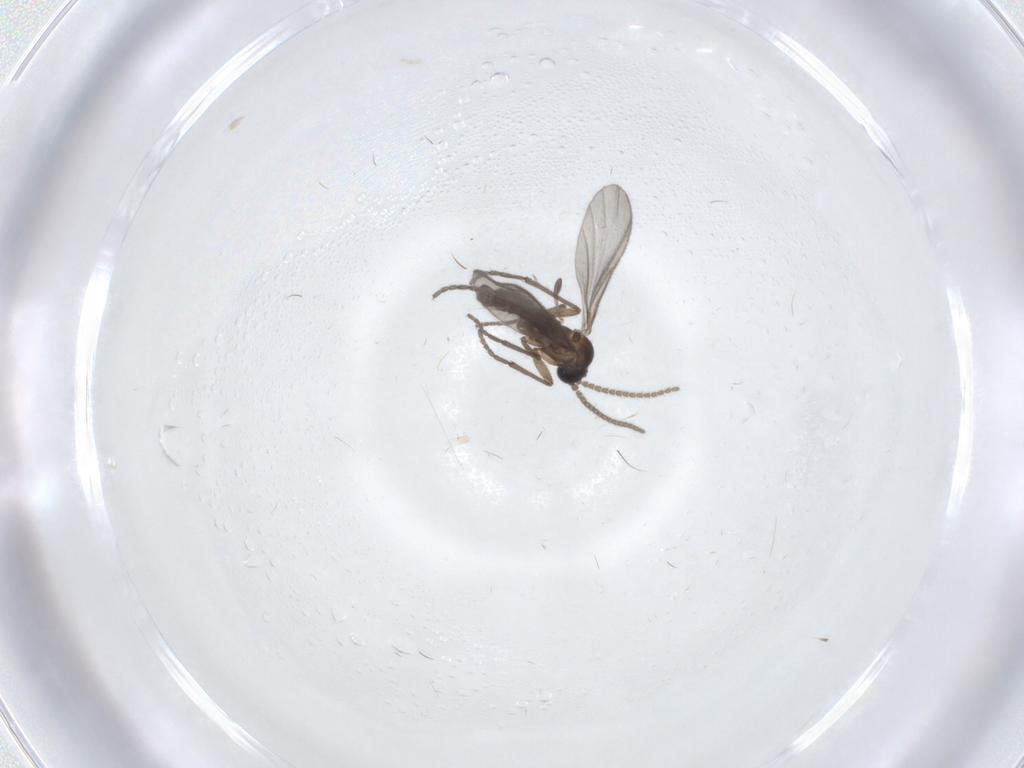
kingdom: Animalia
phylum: Arthropoda
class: Insecta
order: Diptera
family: Sciaridae
